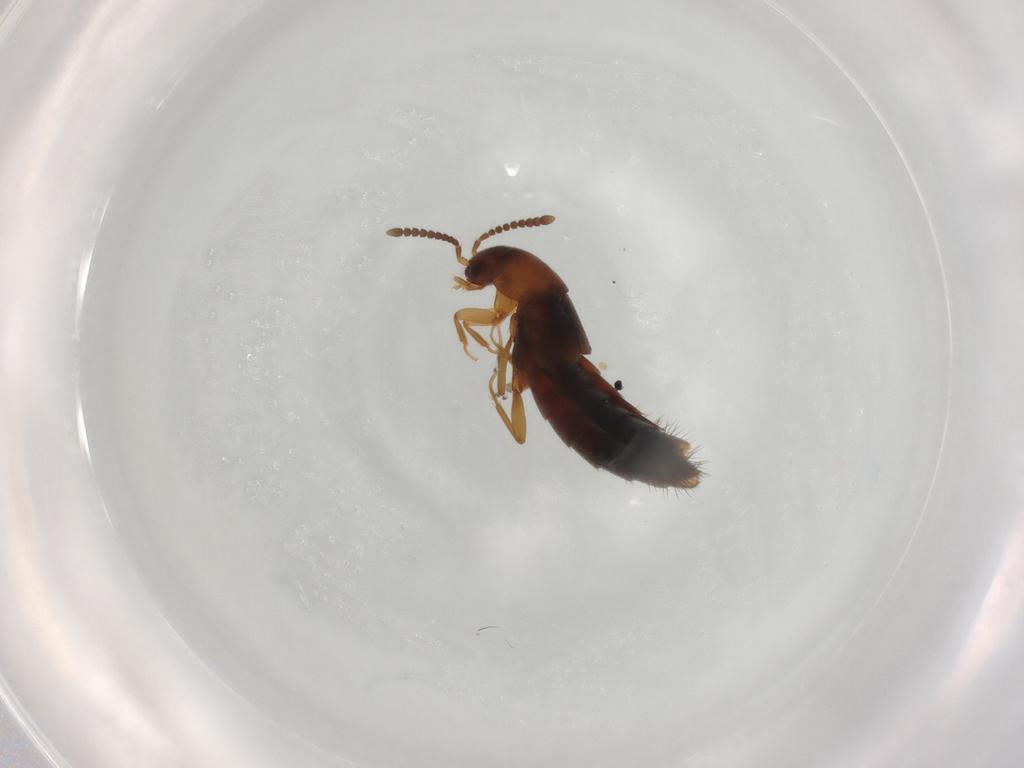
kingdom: Animalia
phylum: Arthropoda
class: Insecta
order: Coleoptera
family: Staphylinidae
